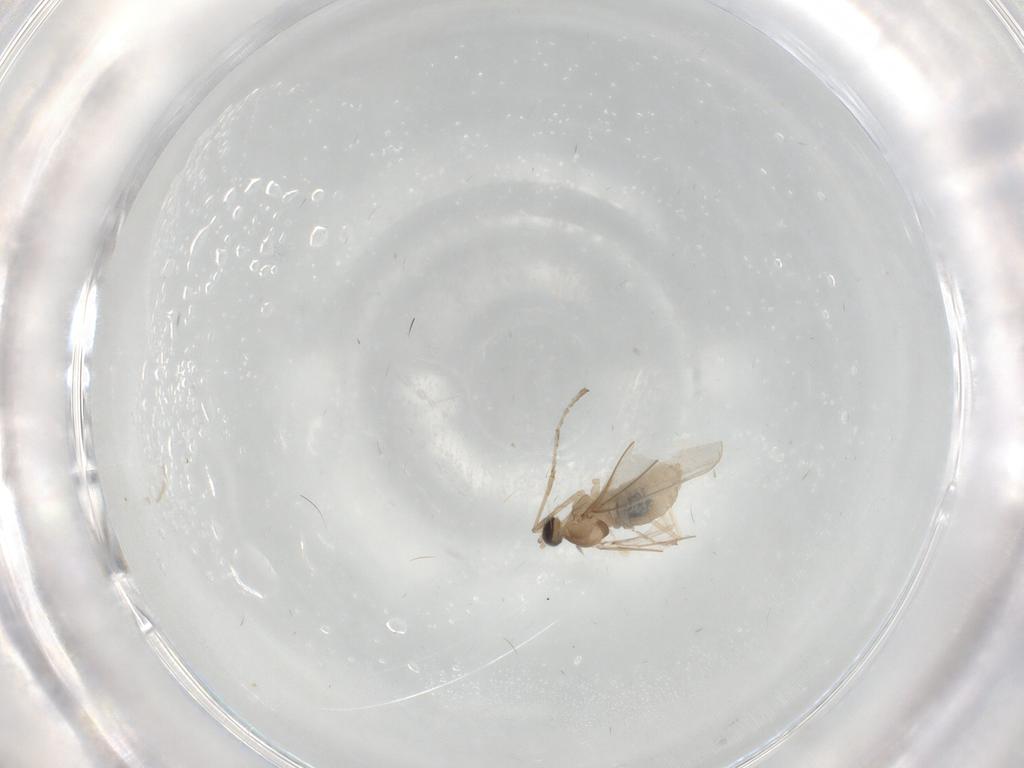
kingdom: Animalia
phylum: Arthropoda
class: Insecta
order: Diptera
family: Cecidomyiidae
